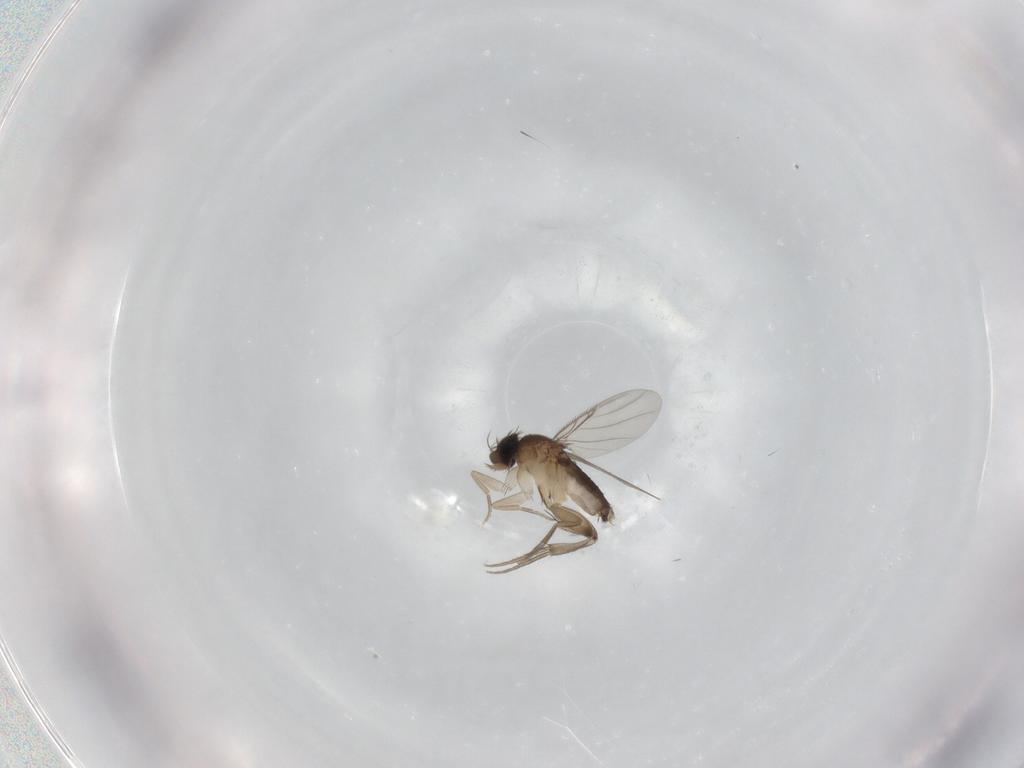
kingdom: Animalia
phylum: Arthropoda
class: Insecta
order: Diptera
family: Phoridae
